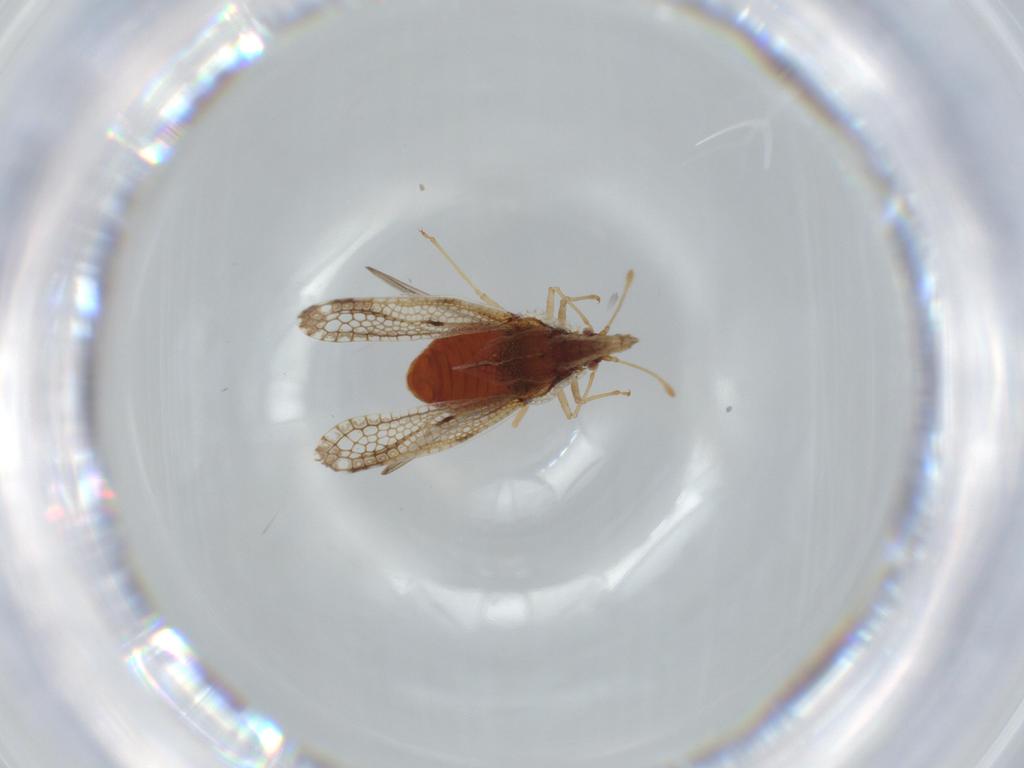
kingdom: Animalia
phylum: Arthropoda
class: Insecta
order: Hemiptera
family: Tingidae
